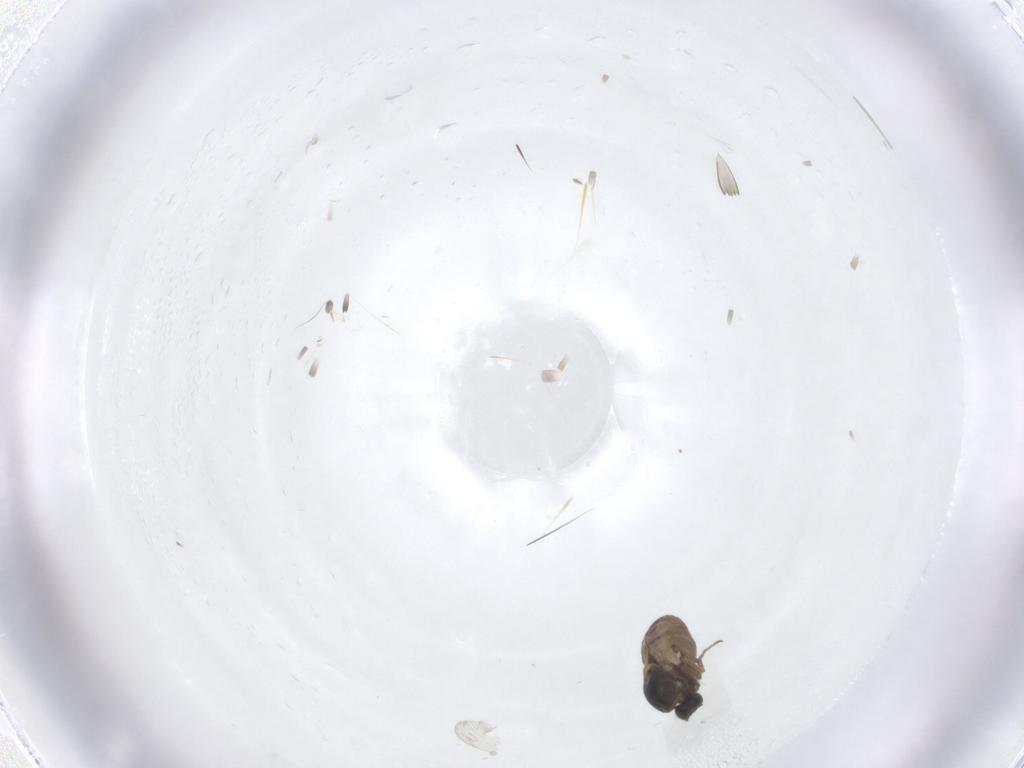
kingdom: Animalia
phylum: Arthropoda
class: Insecta
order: Diptera
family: Ceratopogonidae
